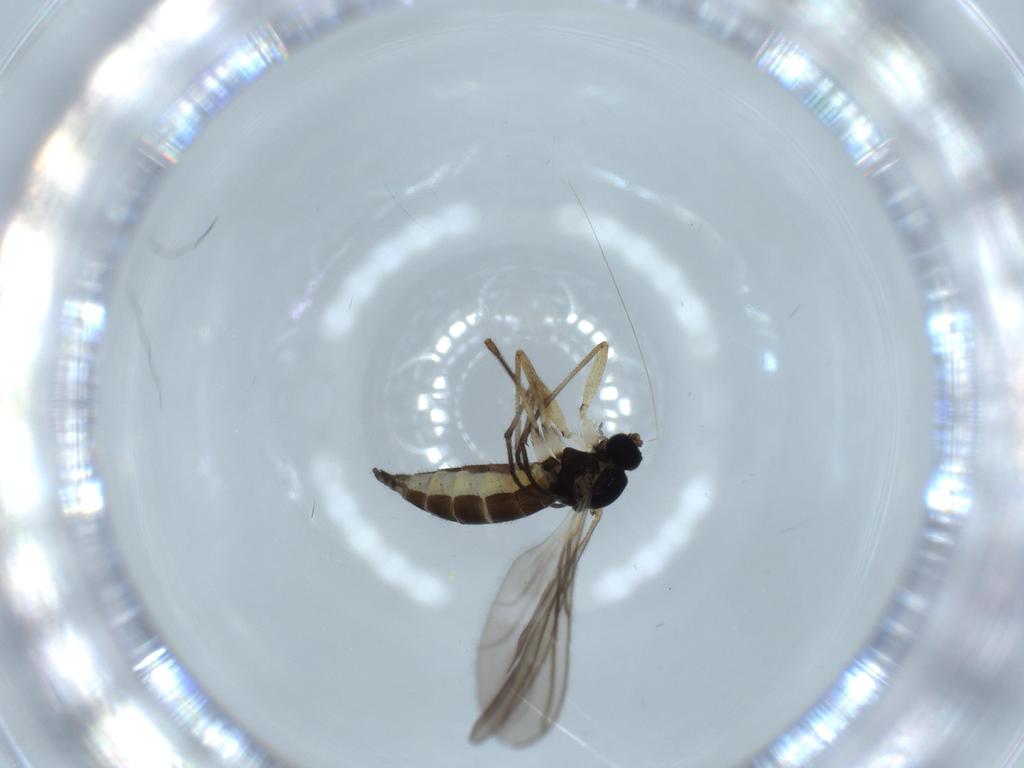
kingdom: Animalia
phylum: Arthropoda
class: Insecta
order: Diptera
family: Sciaridae
